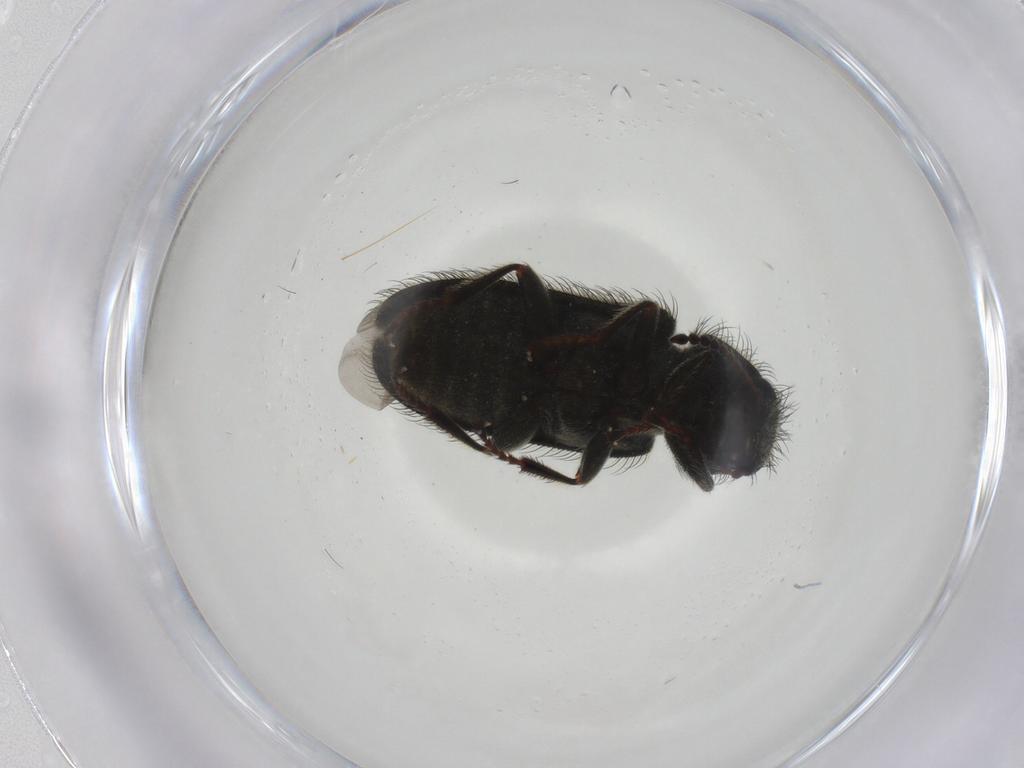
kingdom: Animalia
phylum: Arthropoda
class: Insecta
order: Coleoptera
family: Melyridae
